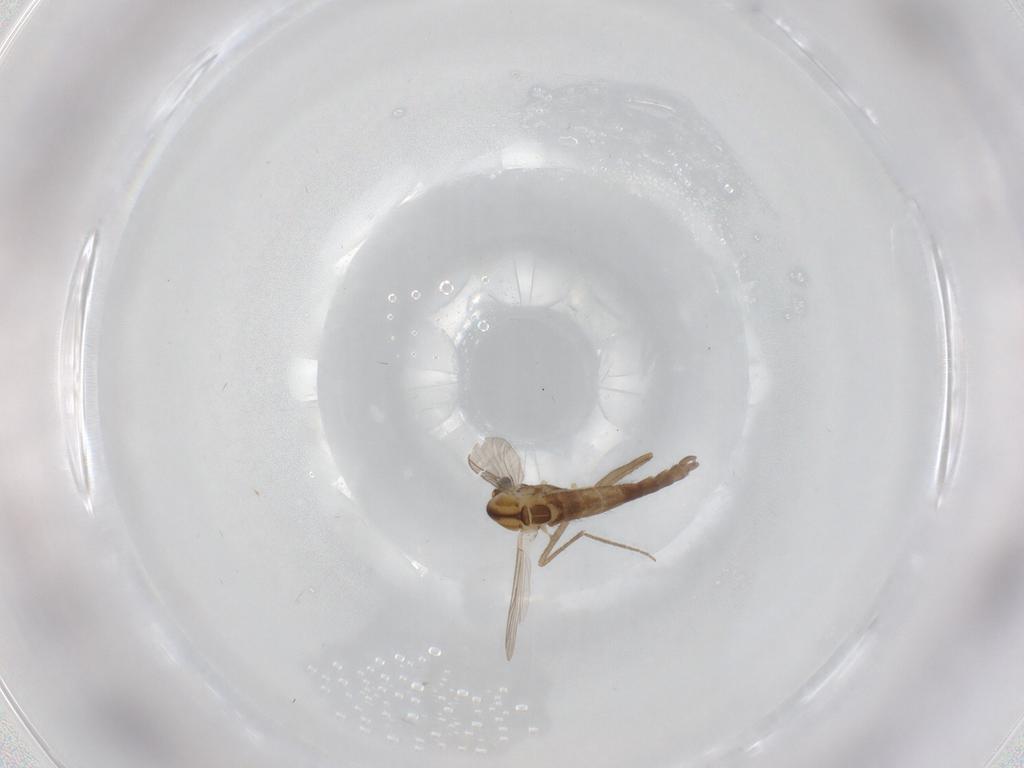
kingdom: Animalia
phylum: Arthropoda
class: Insecta
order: Diptera
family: Chironomidae
